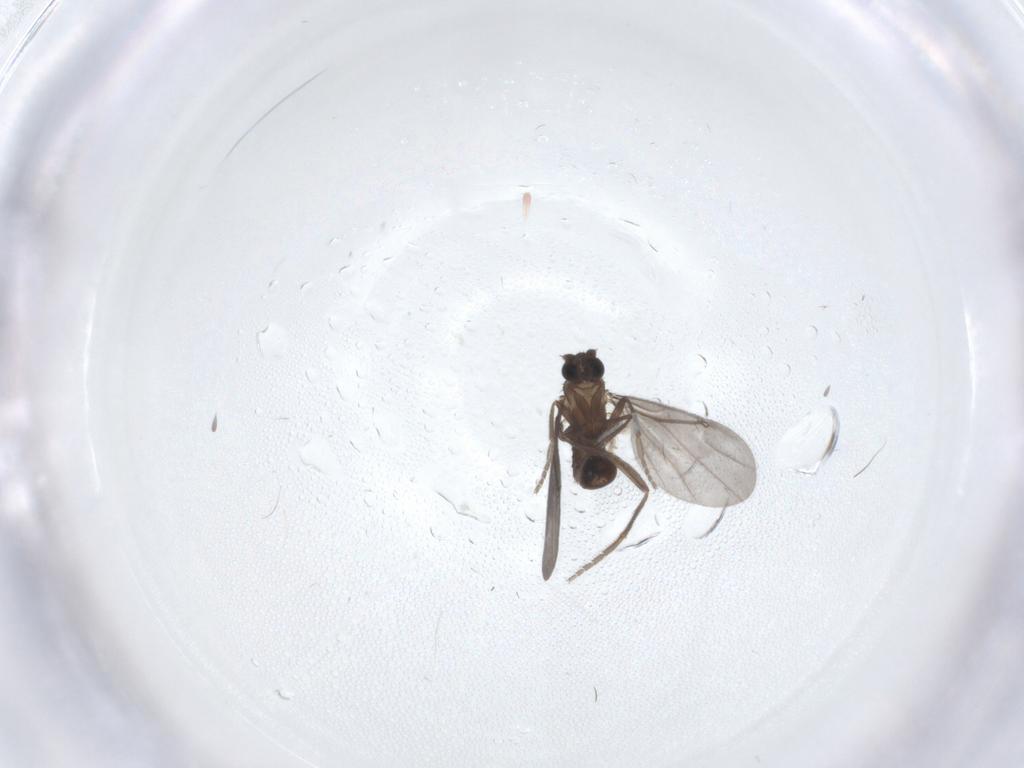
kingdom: Animalia
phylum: Arthropoda
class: Insecta
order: Diptera
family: Phoridae
